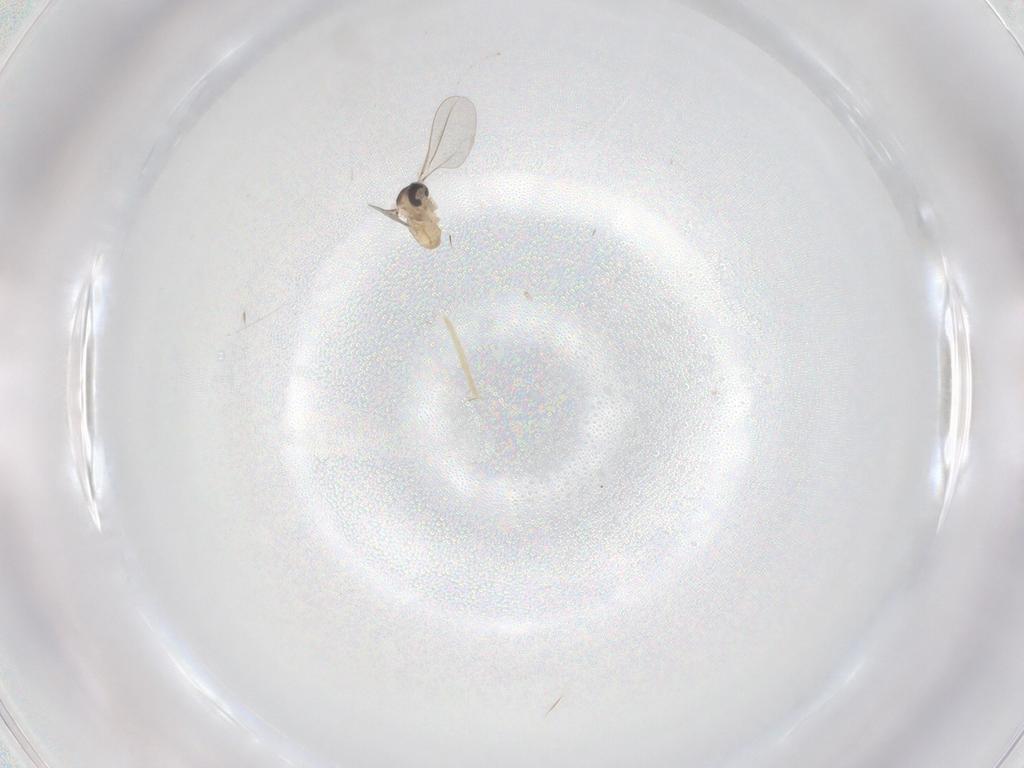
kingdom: Animalia
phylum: Arthropoda
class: Insecta
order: Diptera
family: Cecidomyiidae
